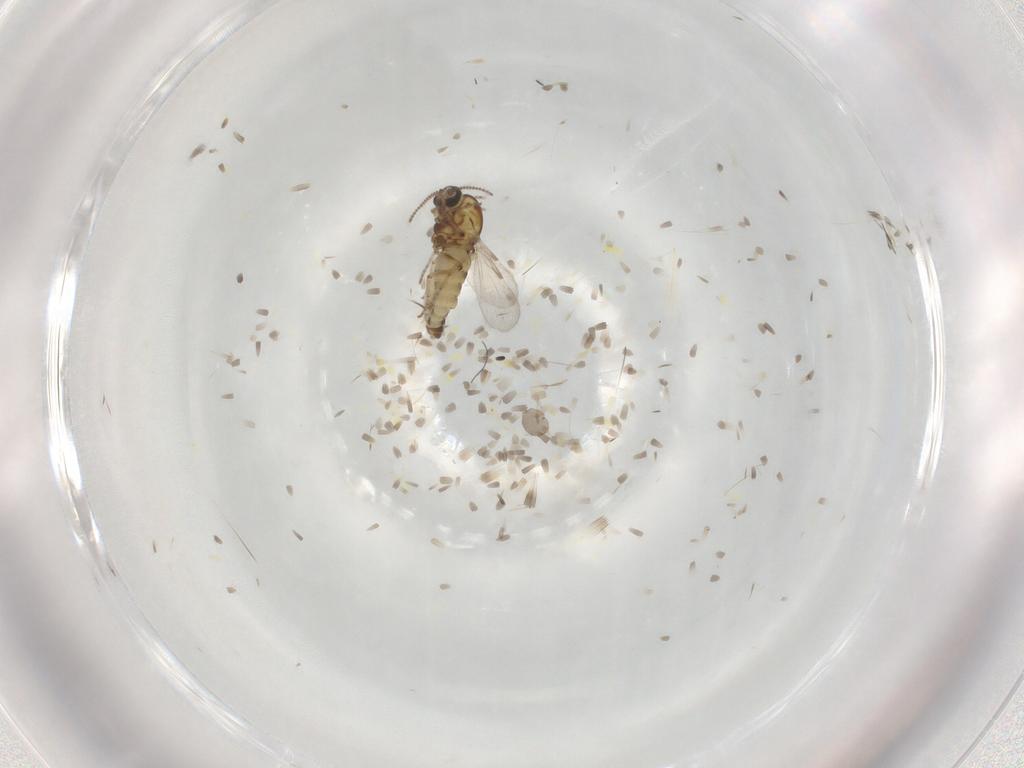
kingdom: Animalia
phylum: Arthropoda
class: Insecta
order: Diptera
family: Ceratopogonidae
